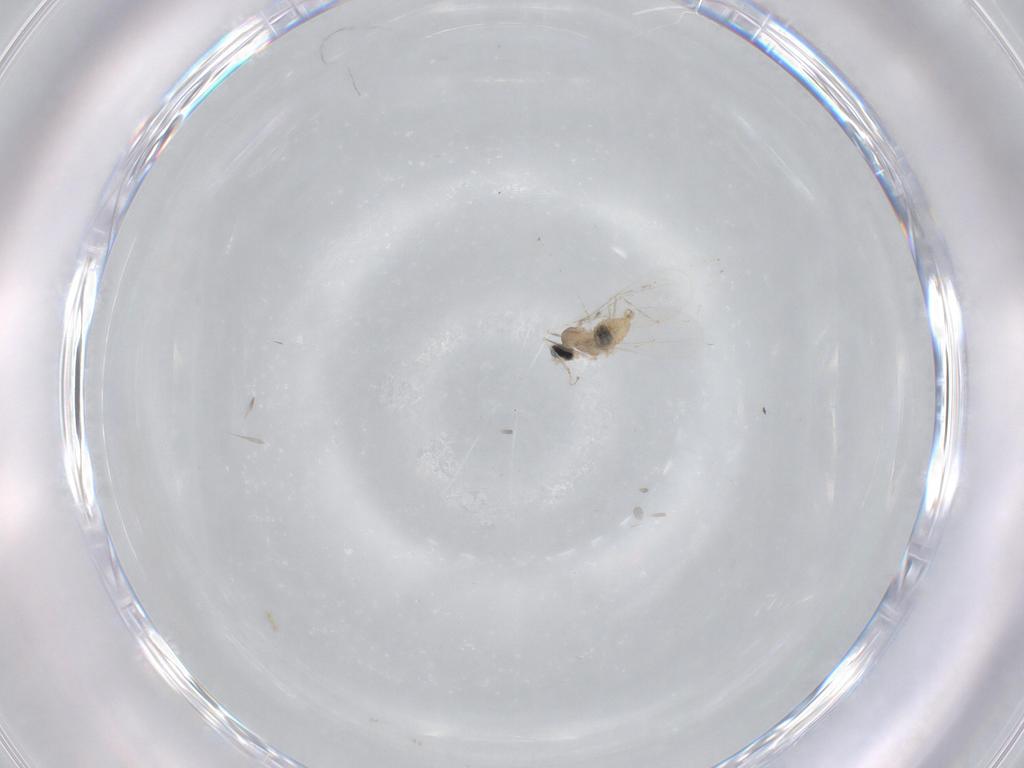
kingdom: Animalia
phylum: Arthropoda
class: Insecta
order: Diptera
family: Cecidomyiidae
